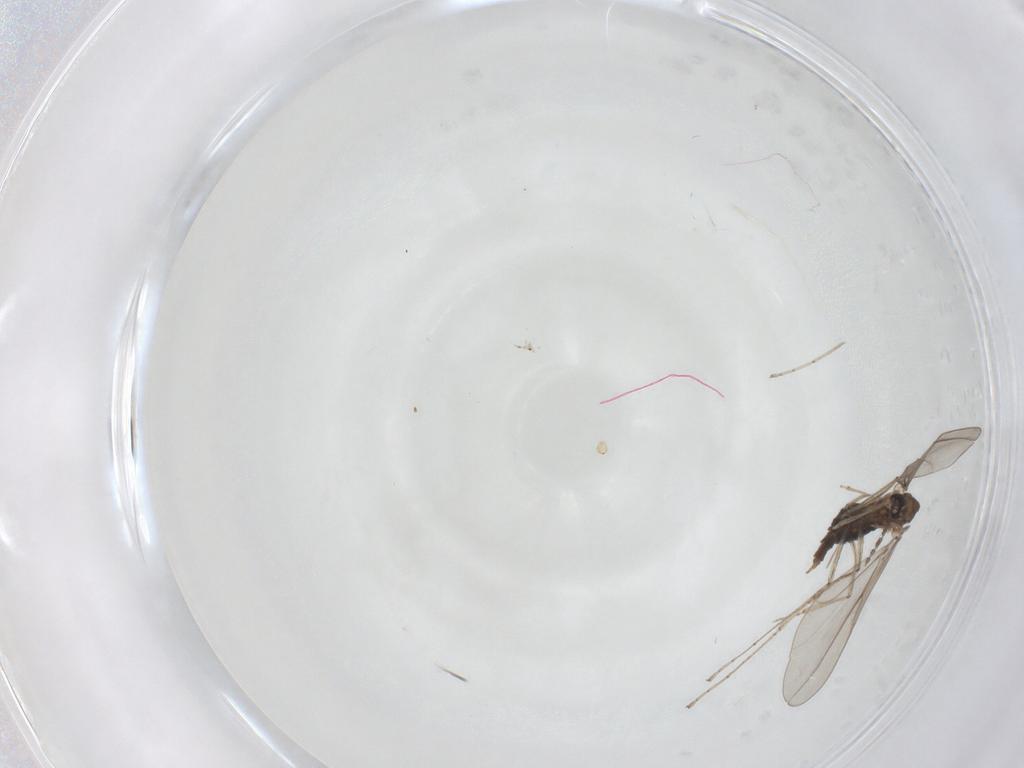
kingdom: Animalia
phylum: Arthropoda
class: Insecta
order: Diptera
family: Cecidomyiidae
